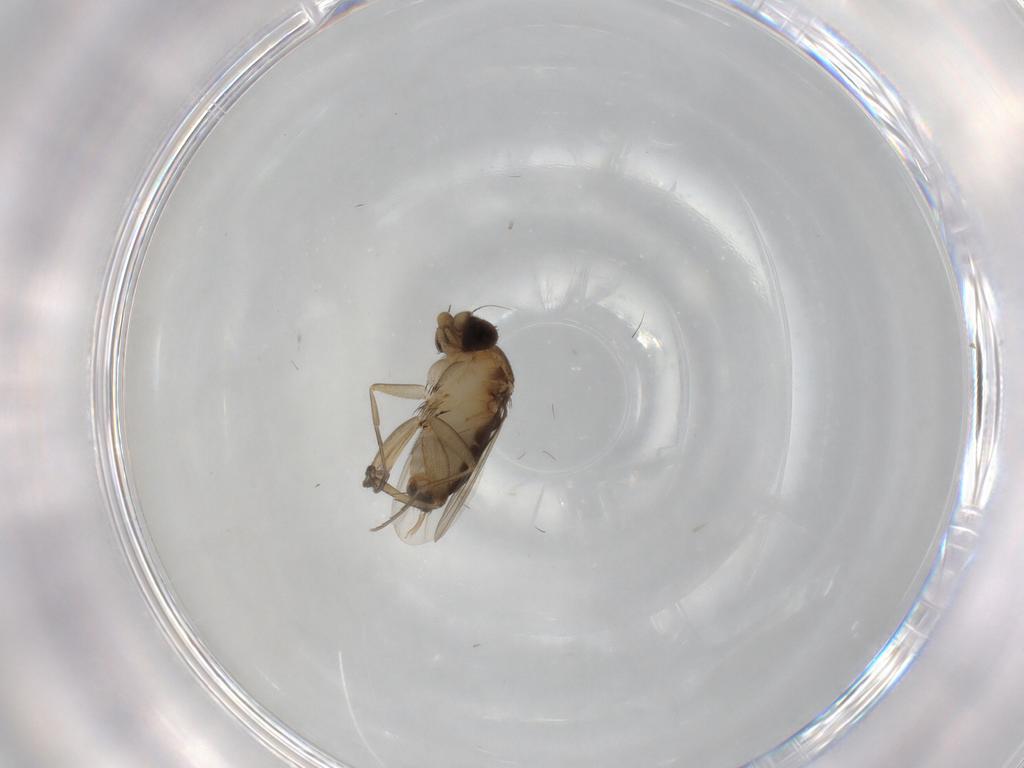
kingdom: Animalia
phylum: Arthropoda
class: Insecta
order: Diptera
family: Phoridae
